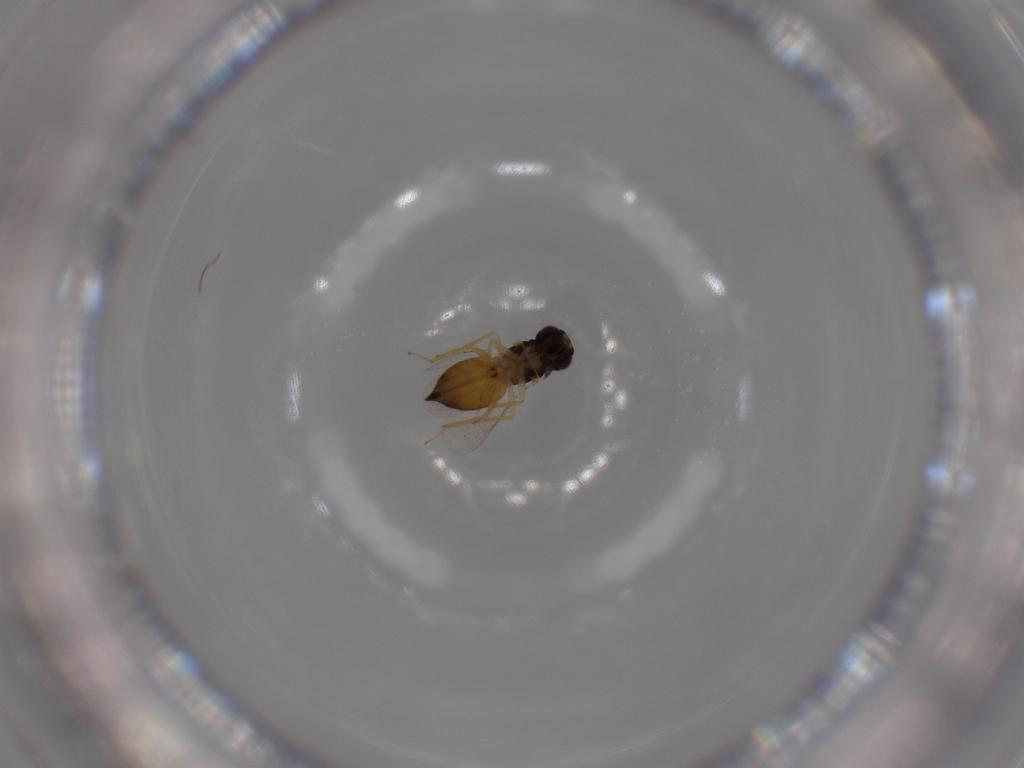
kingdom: Animalia
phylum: Arthropoda
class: Insecta
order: Hymenoptera
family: Eulophidae
